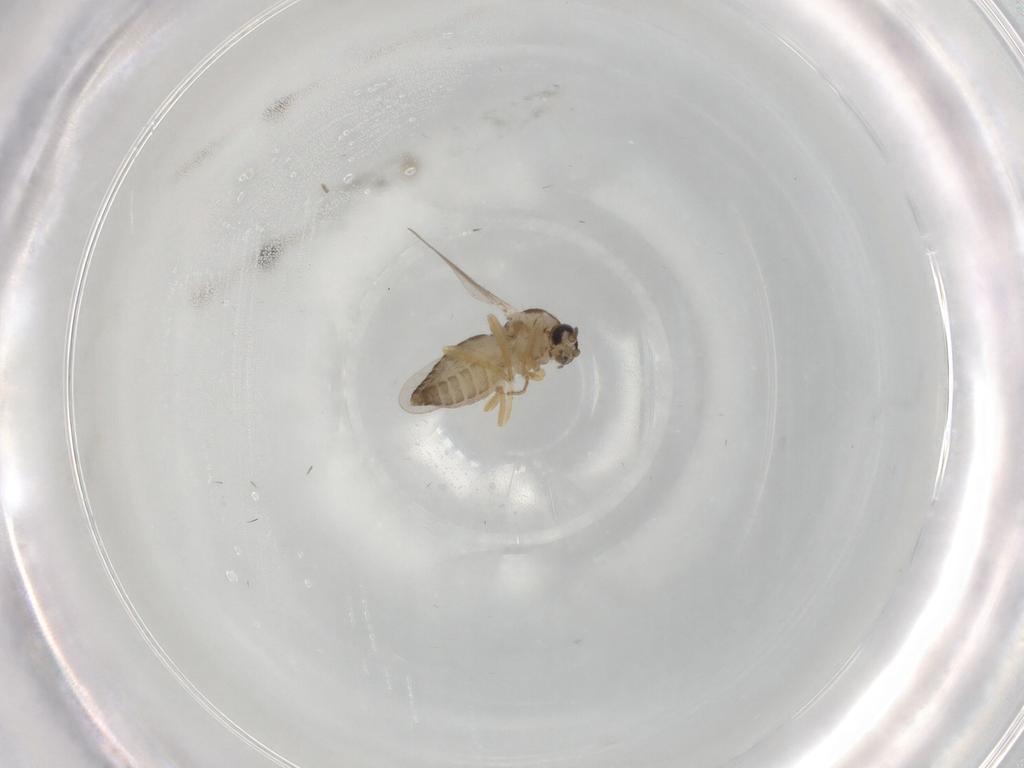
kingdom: Animalia
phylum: Arthropoda
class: Insecta
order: Diptera
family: Ceratopogonidae
